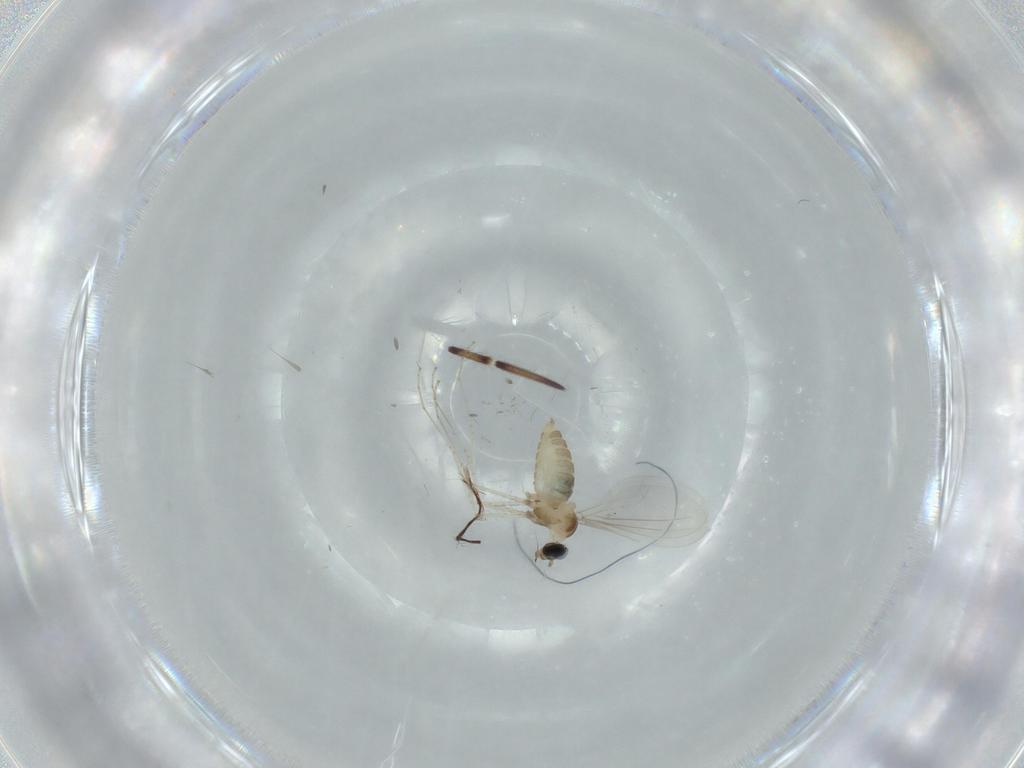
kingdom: Animalia
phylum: Arthropoda
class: Insecta
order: Diptera
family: Cecidomyiidae
